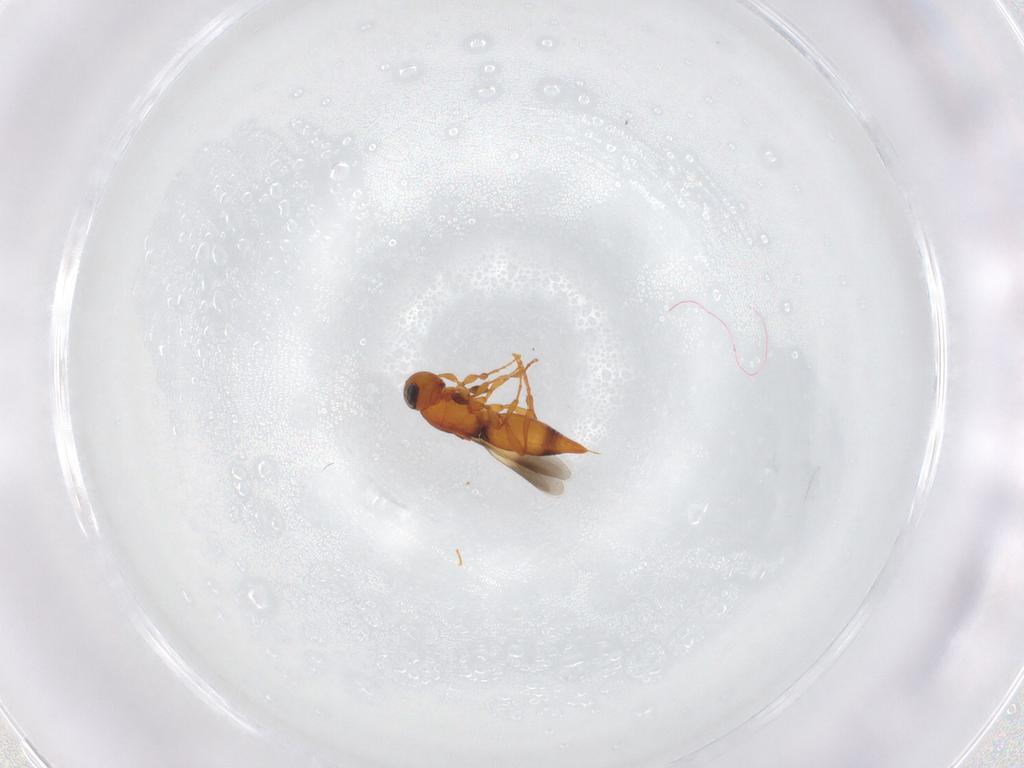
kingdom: Animalia
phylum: Arthropoda
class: Insecta
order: Hymenoptera
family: Platygastridae
